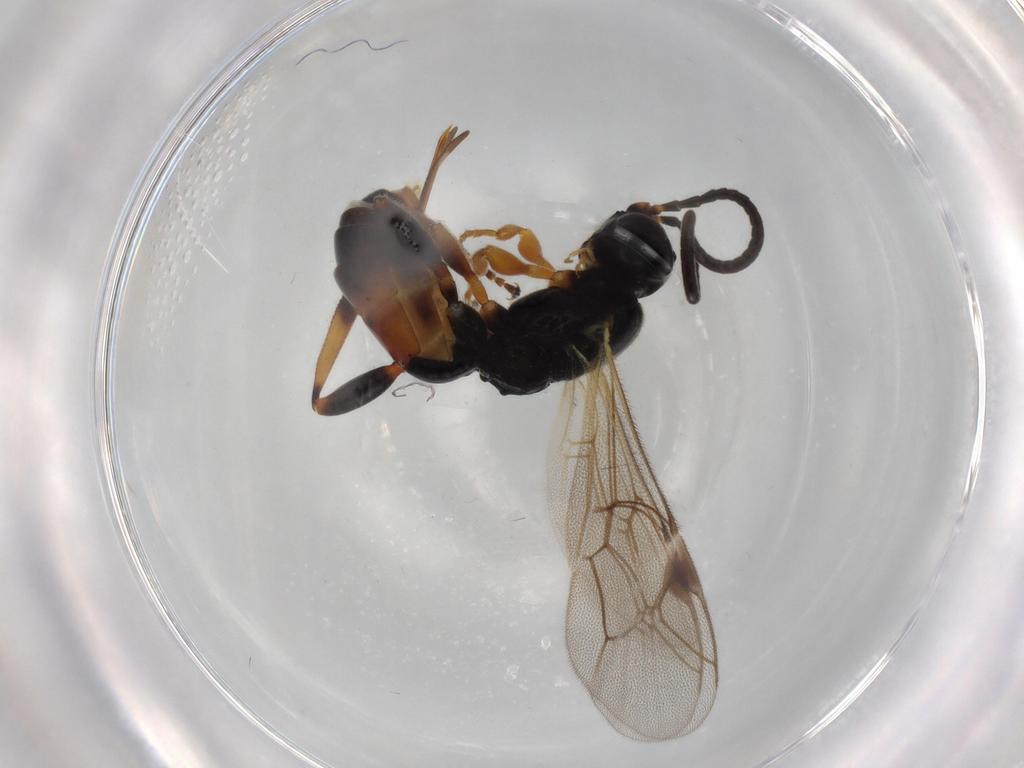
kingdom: Animalia
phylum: Arthropoda
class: Insecta
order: Hymenoptera
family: Ichneumonidae
